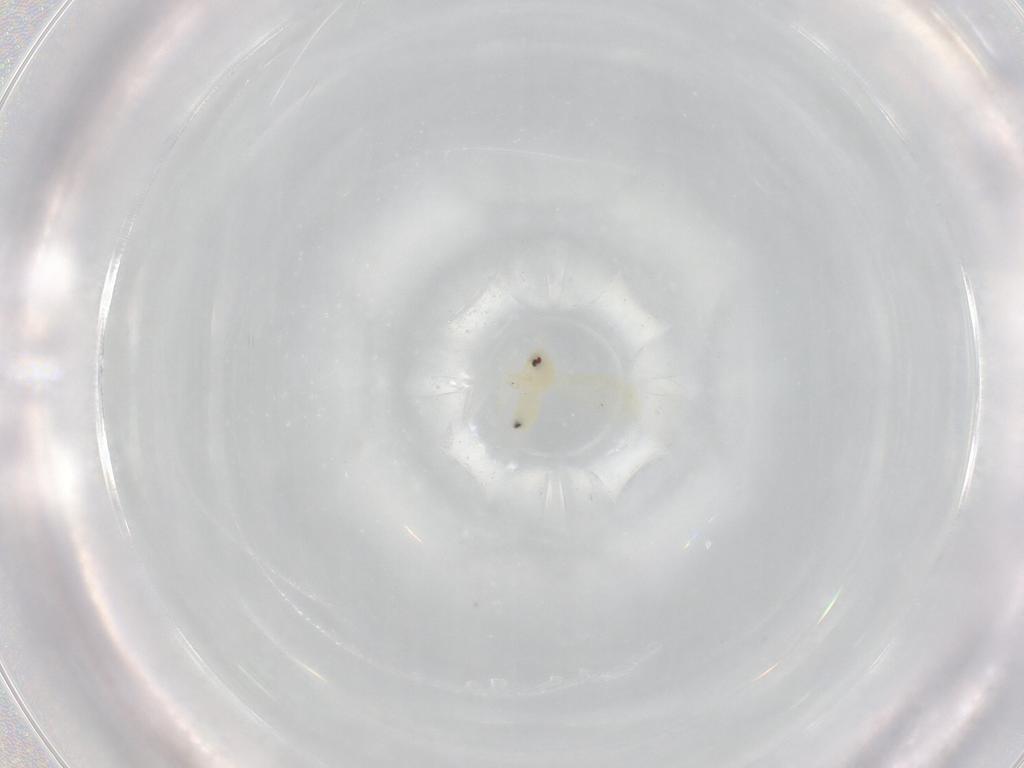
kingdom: Animalia
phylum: Arthropoda
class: Insecta
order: Hemiptera
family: Aleyrodidae
